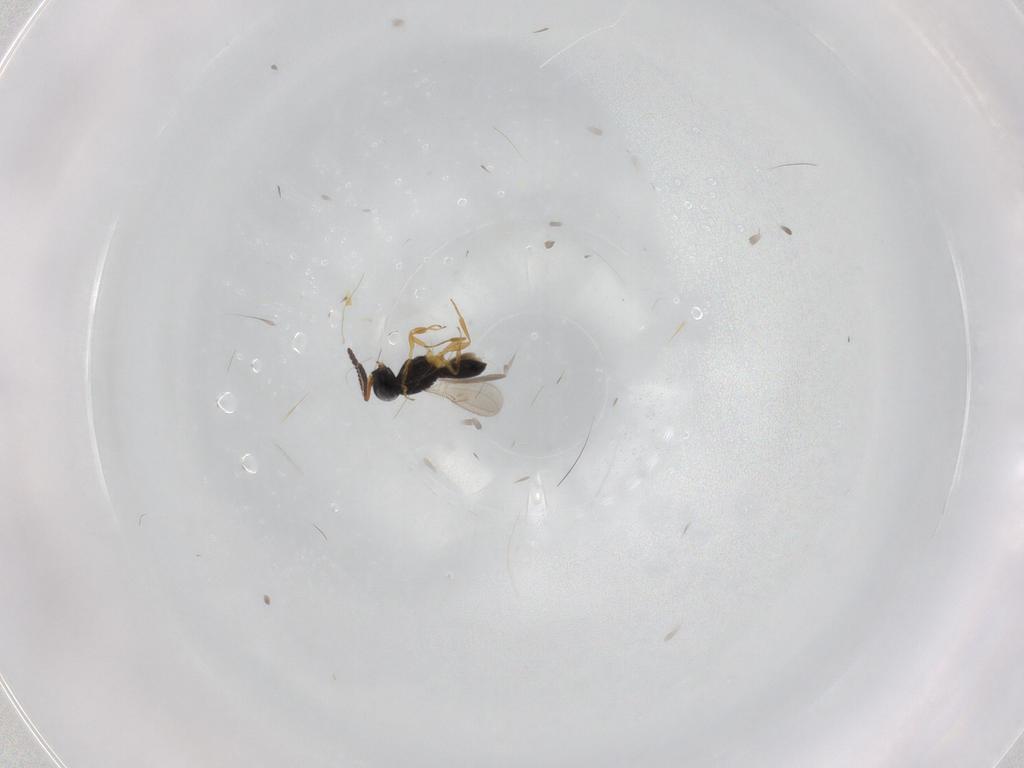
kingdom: Animalia
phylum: Arthropoda
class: Insecta
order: Hymenoptera
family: Scelionidae
